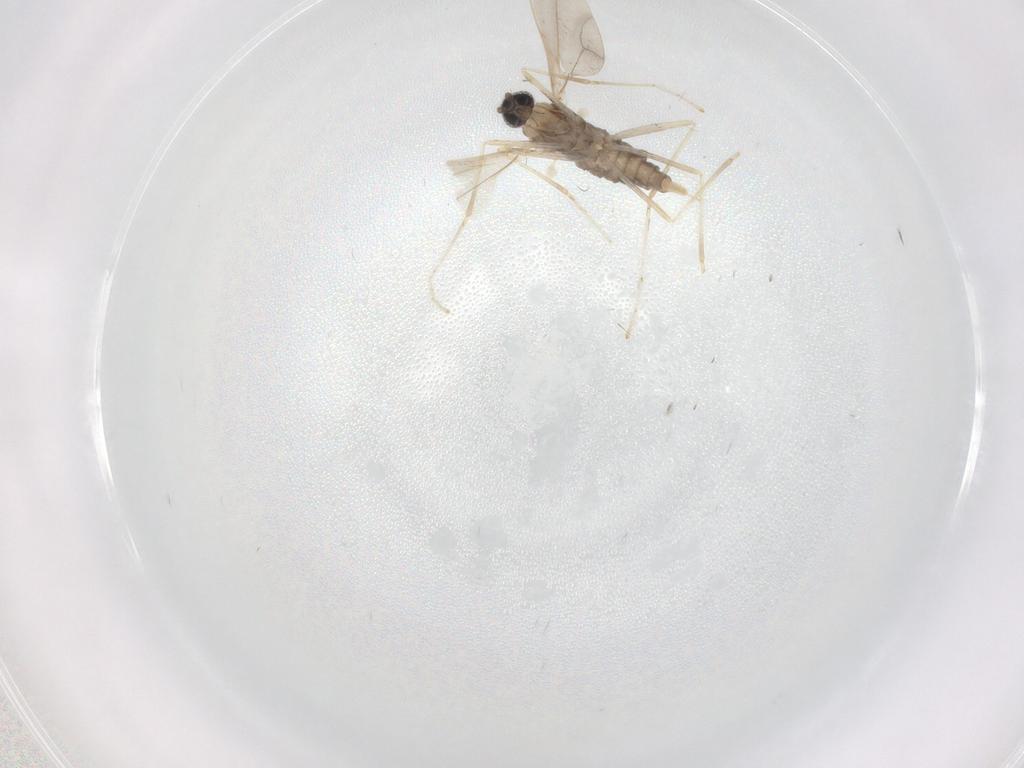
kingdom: Animalia
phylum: Arthropoda
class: Insecta
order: Diptera
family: Cecidomyiidae
